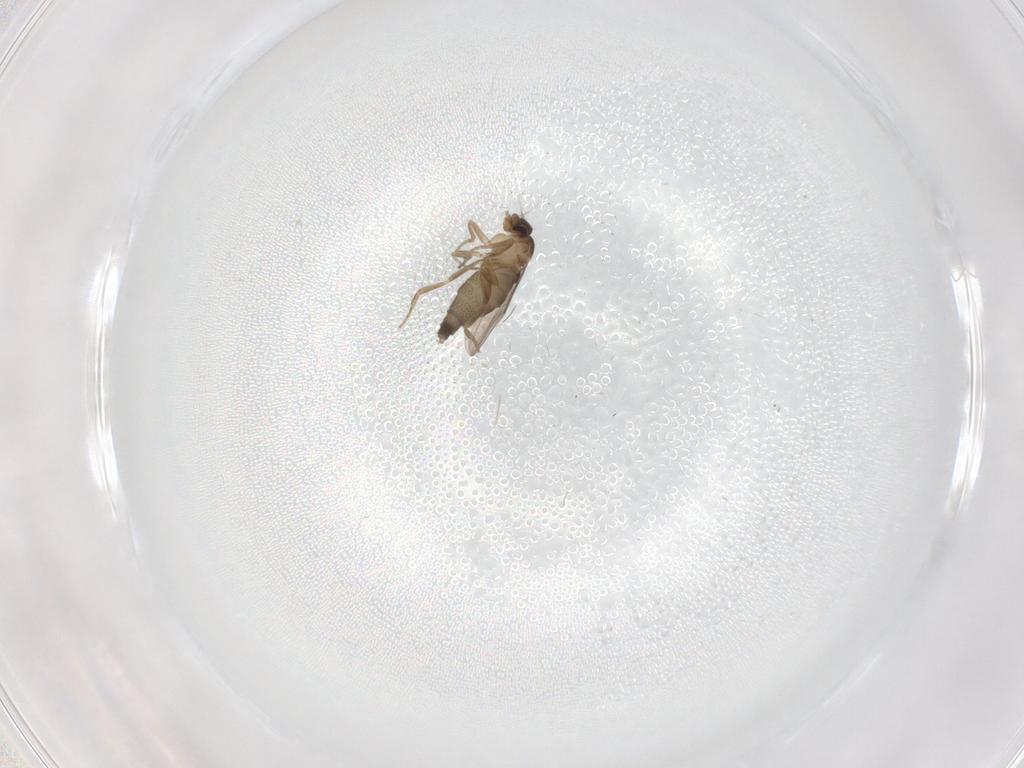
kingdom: Animalia
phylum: Arthropoda
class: Insecta
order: Diptera
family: Phoridae
